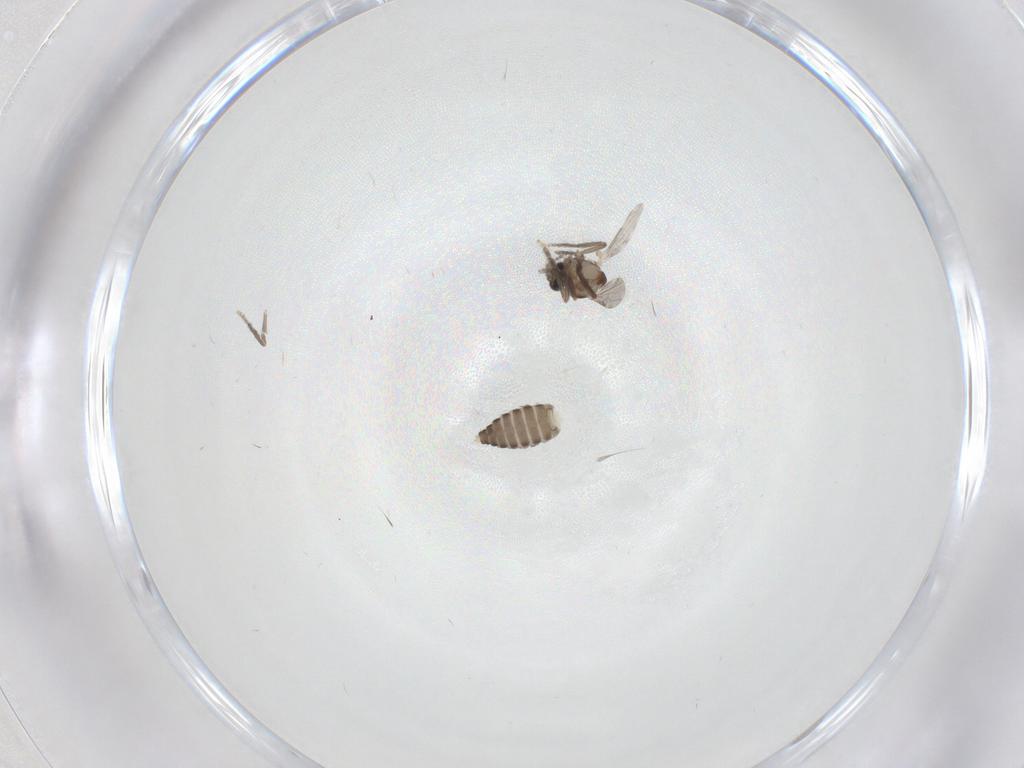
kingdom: Animalia
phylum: Arthropoda
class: Insecta
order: Diptera
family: Ceratopogonidae
